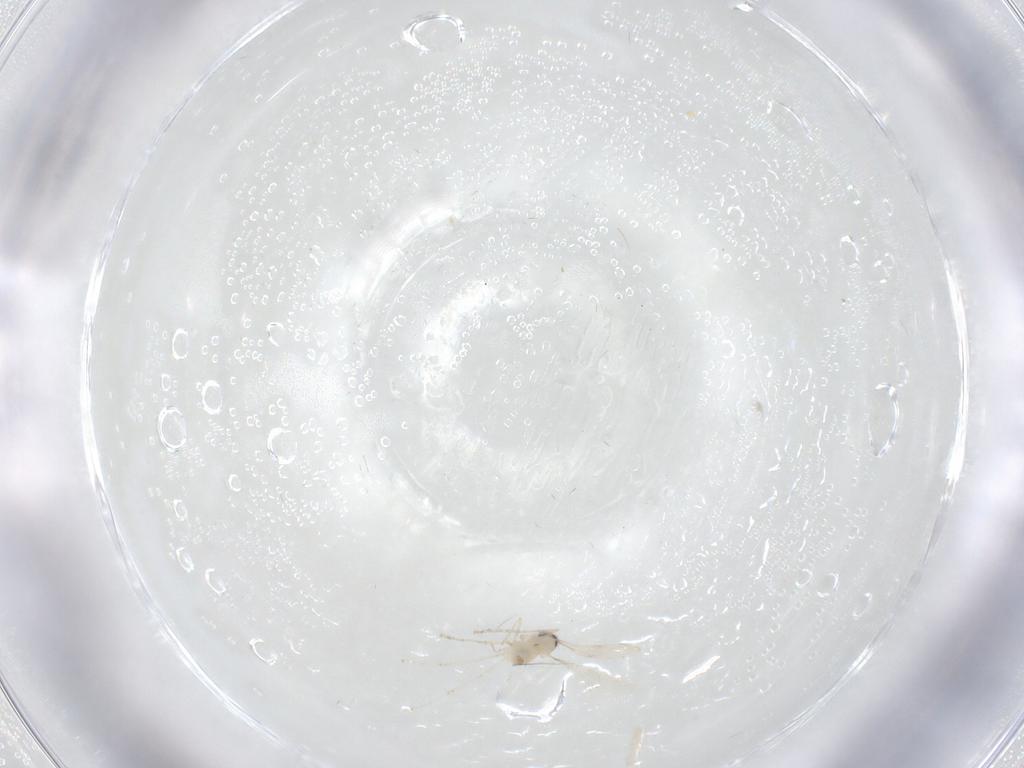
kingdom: Animalia
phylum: Arthropoda
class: Insecta
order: Diptera
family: Cecidomyiidae
